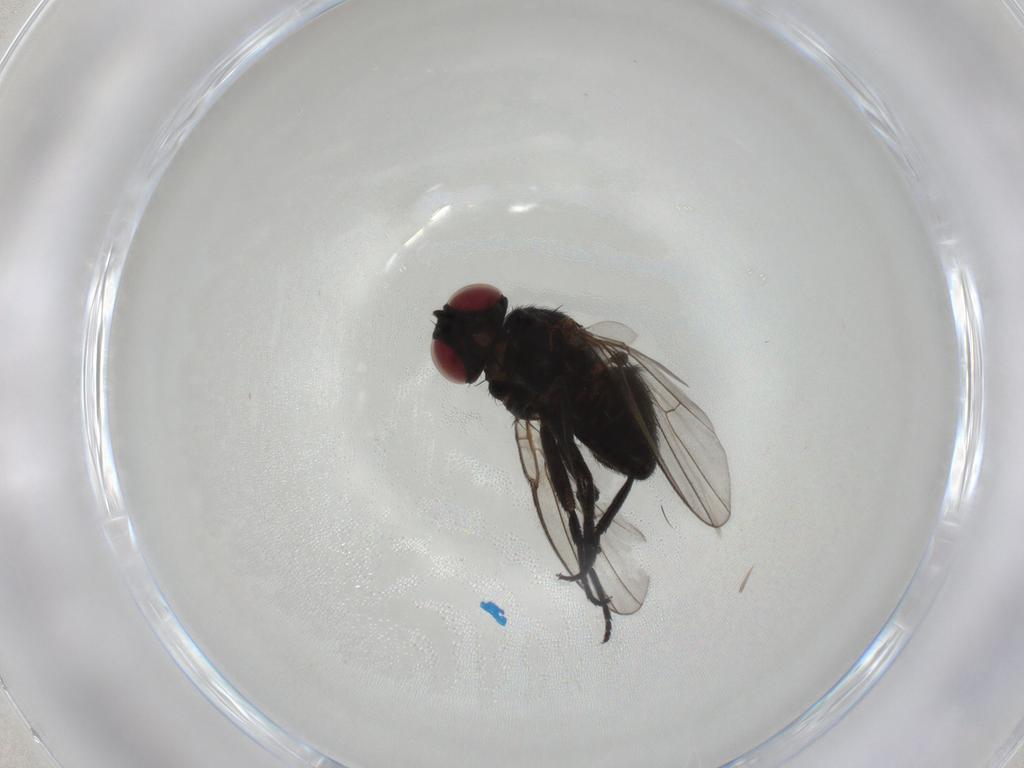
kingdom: Animalia
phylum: Arthropoda
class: Insecta
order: Diptera
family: Agromyzidae
